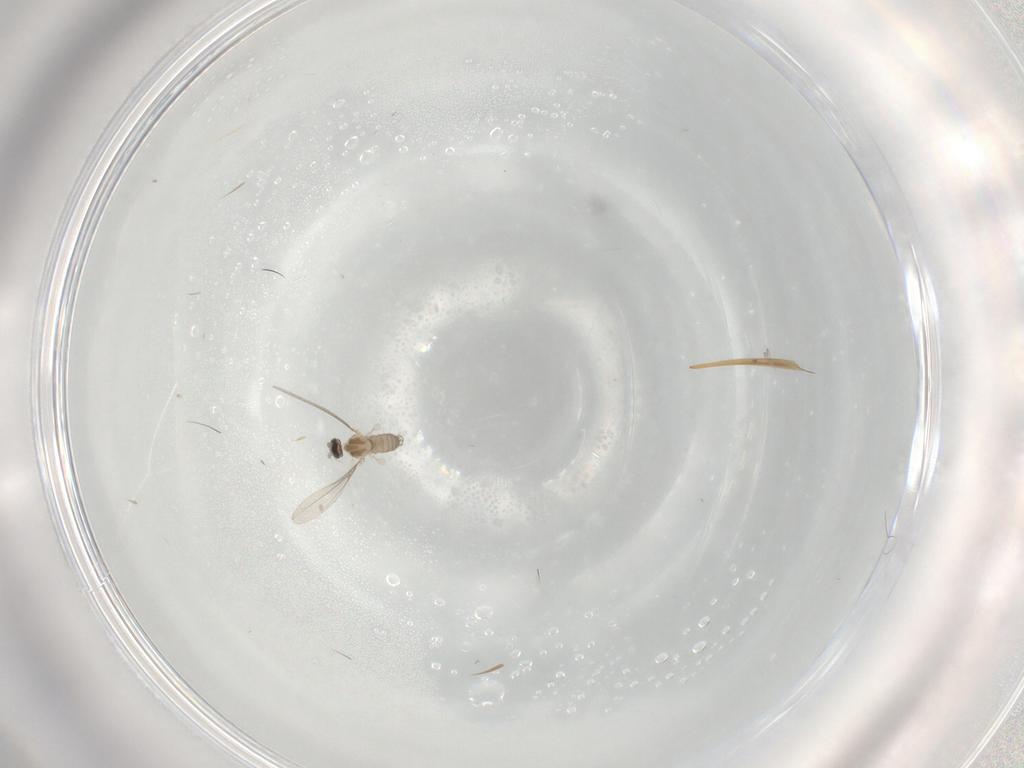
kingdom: Animalia
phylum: Arthropoda
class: Insecta
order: Diptera
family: Cecidomyiidae
